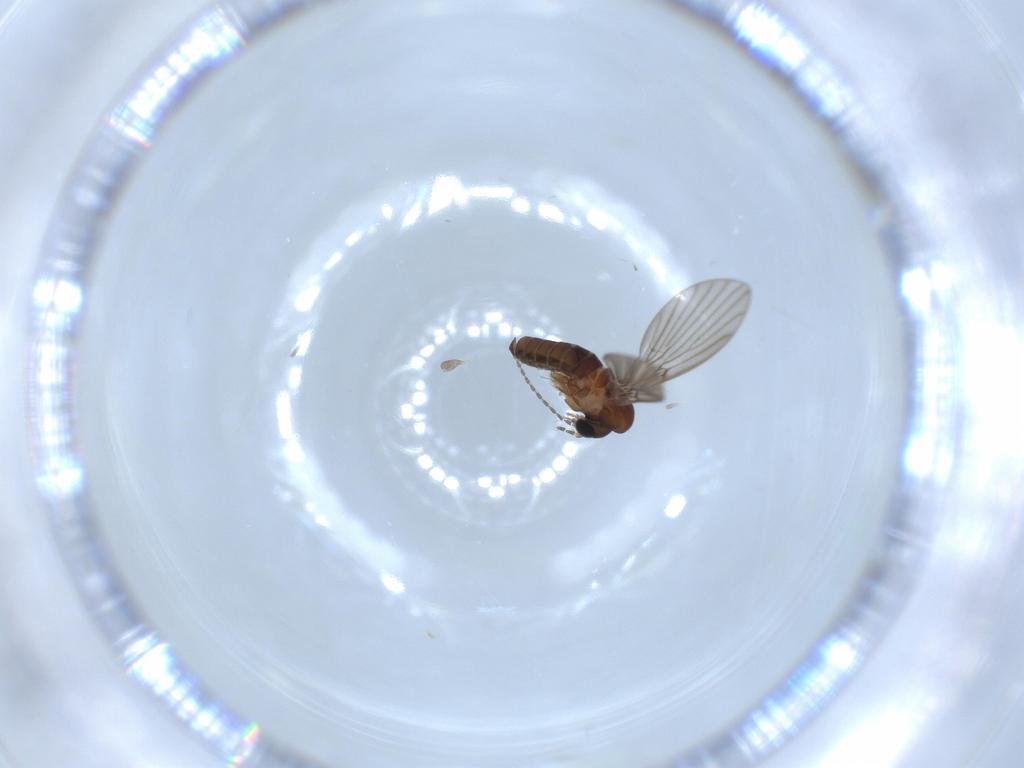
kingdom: Animalia
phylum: Arthropoda
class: Insecta
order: Diptera
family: Psychodidae
